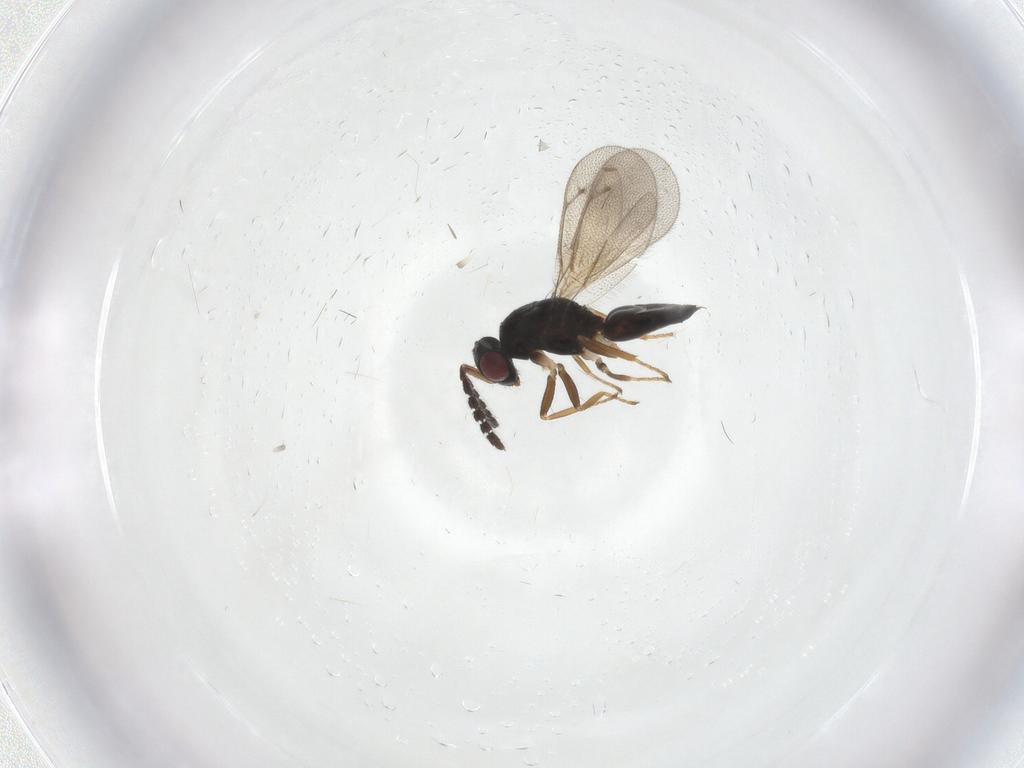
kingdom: Animalia
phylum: Arthropoda
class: Insecta
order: Hymenoptera
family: Eulophidae
